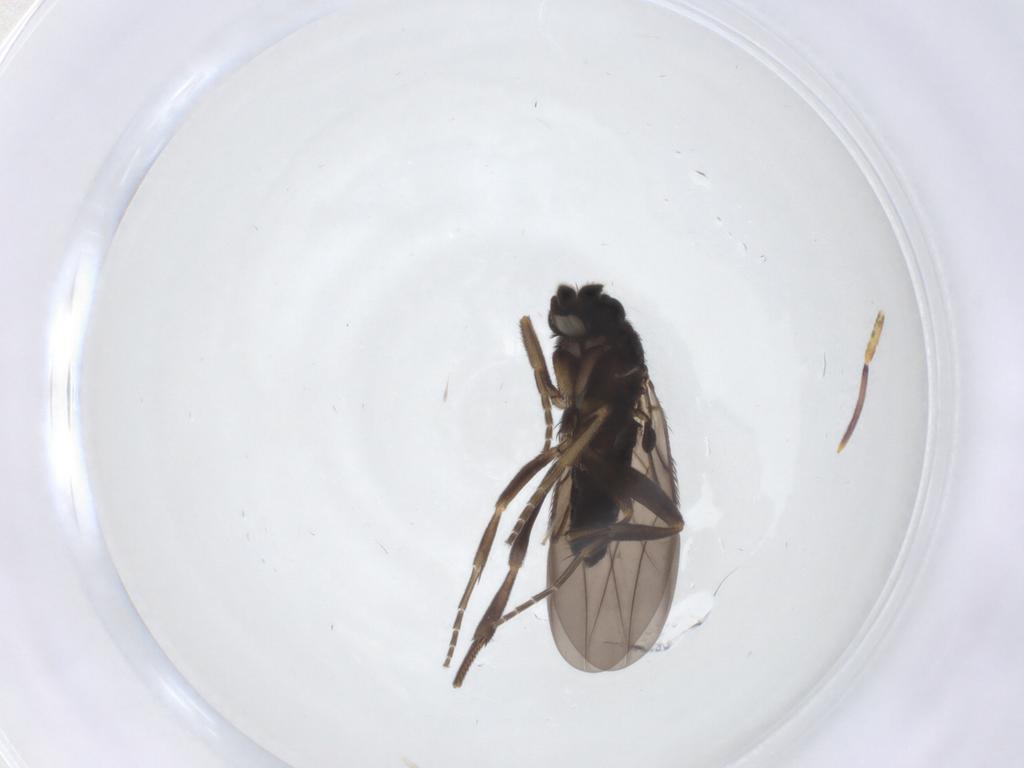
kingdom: Animalia
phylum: Arthropoda
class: Insecta
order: Diptera
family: Phoridae
